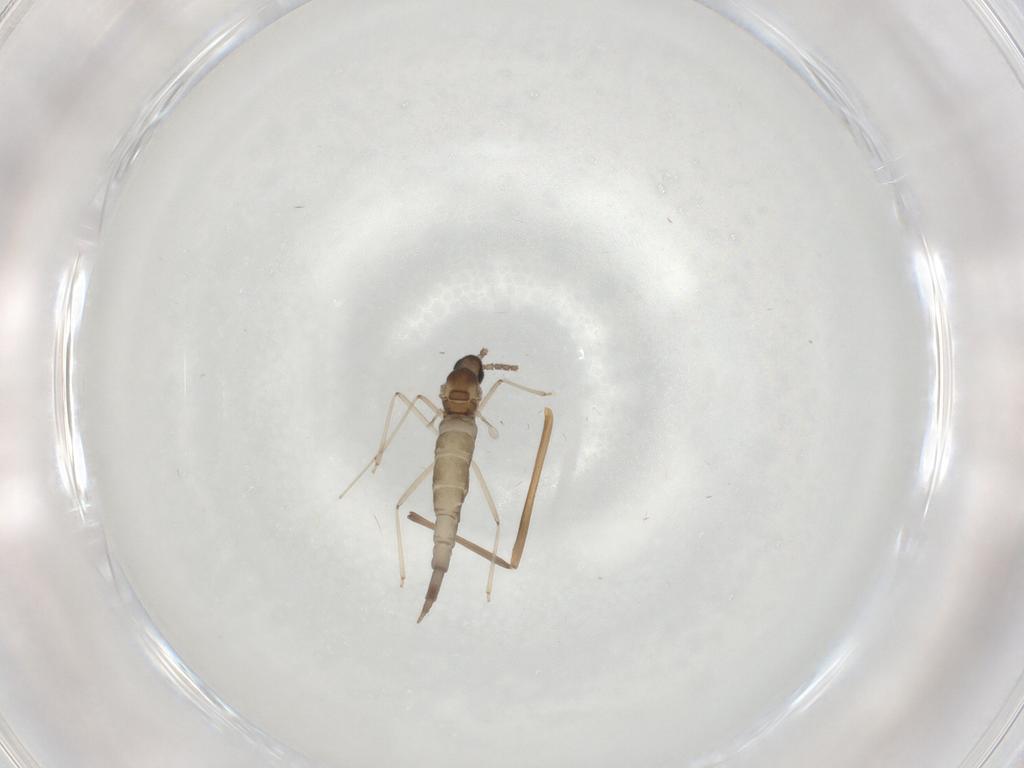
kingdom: Animalia
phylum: Arthropoda
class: Insecta
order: Diptera
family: Cecidomyiidae
